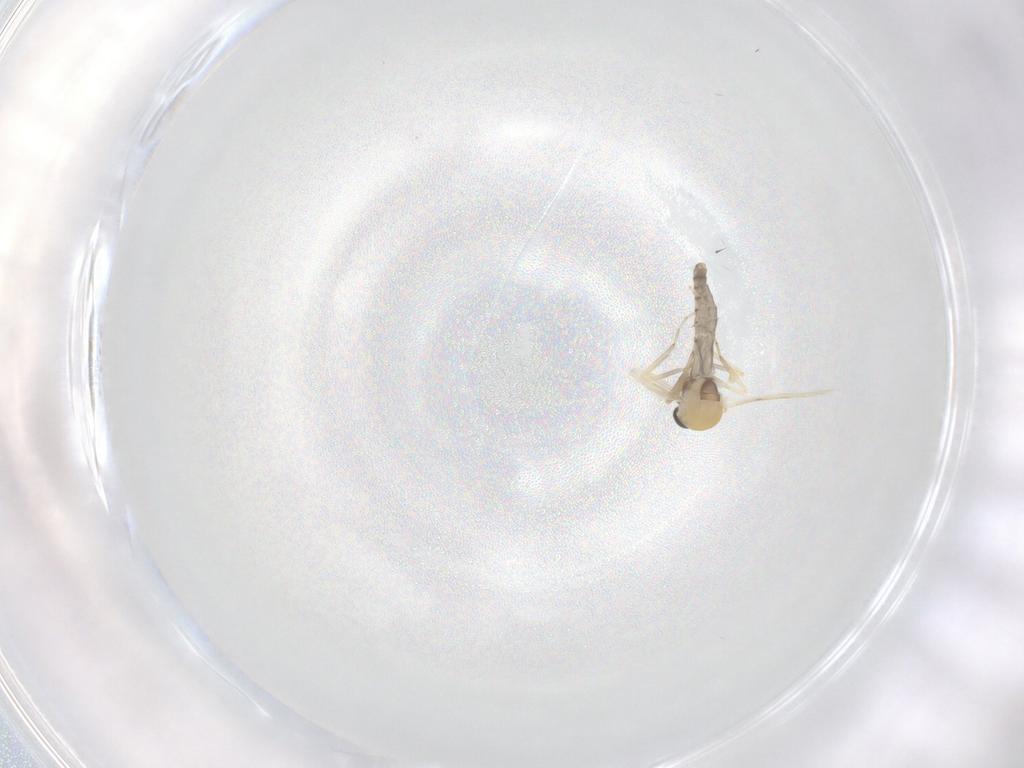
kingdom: Animalia
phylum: Arthropoda
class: Insecta
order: Diptera
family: Ceratopogonidae
